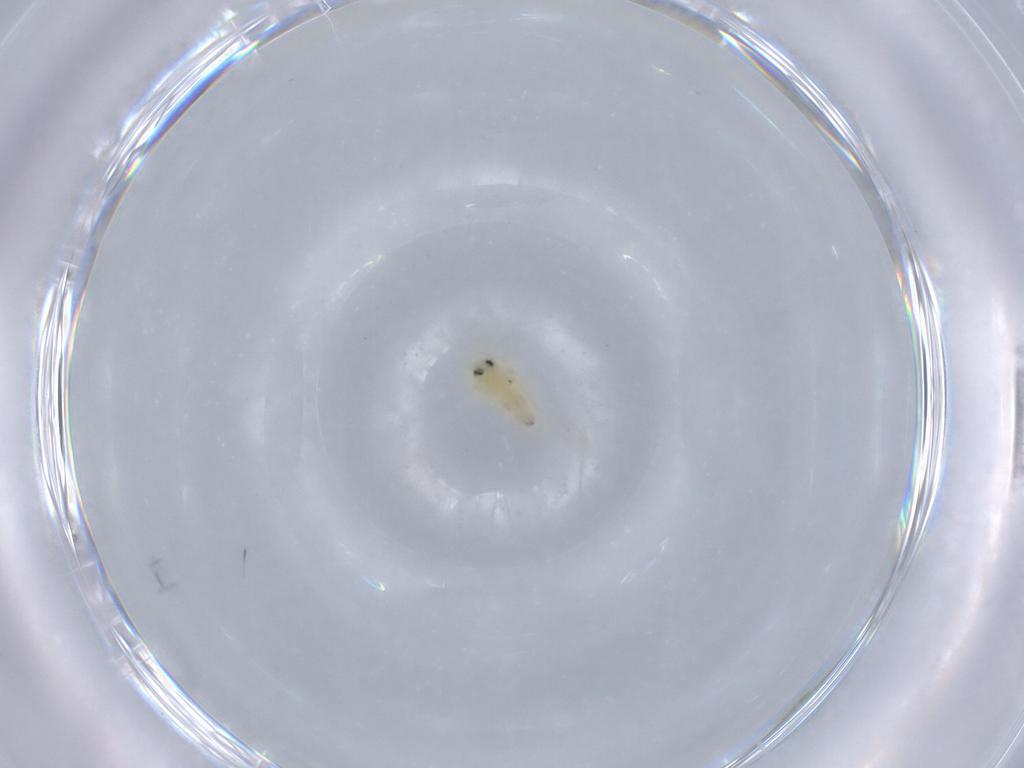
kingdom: Animalia
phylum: Arthropoda
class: Insecta
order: Hemiptera
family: Aleyrodidae
